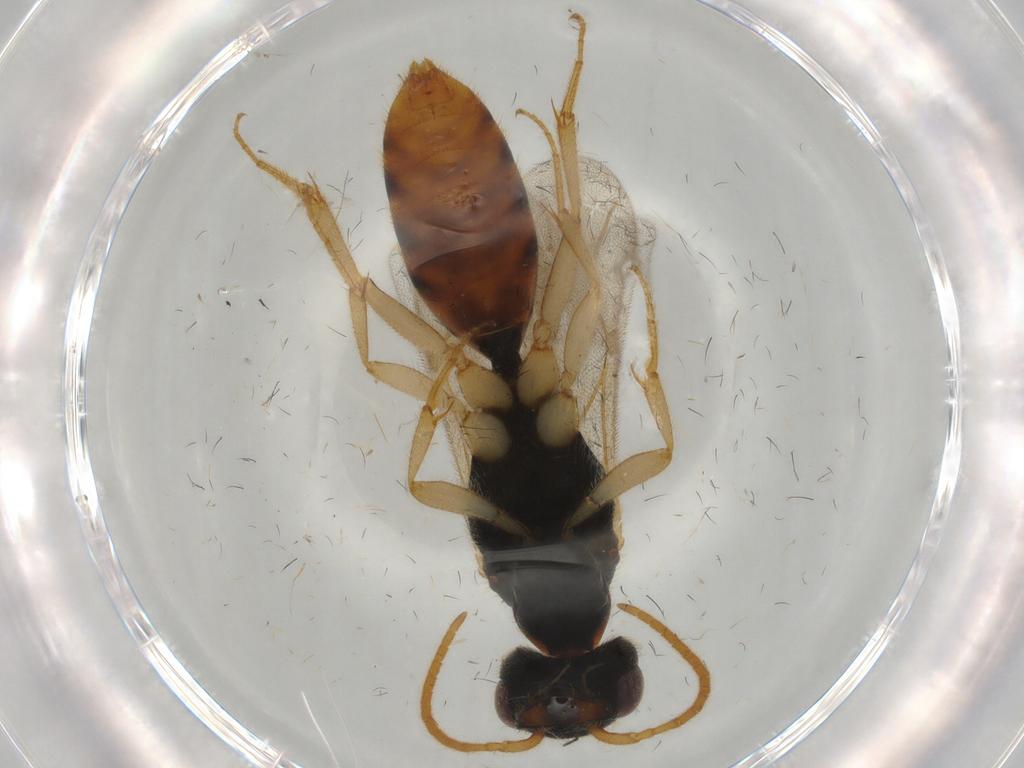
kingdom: Animalia
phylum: Arthropoda
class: Insecta
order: Hymenoptera
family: Bethylidae
